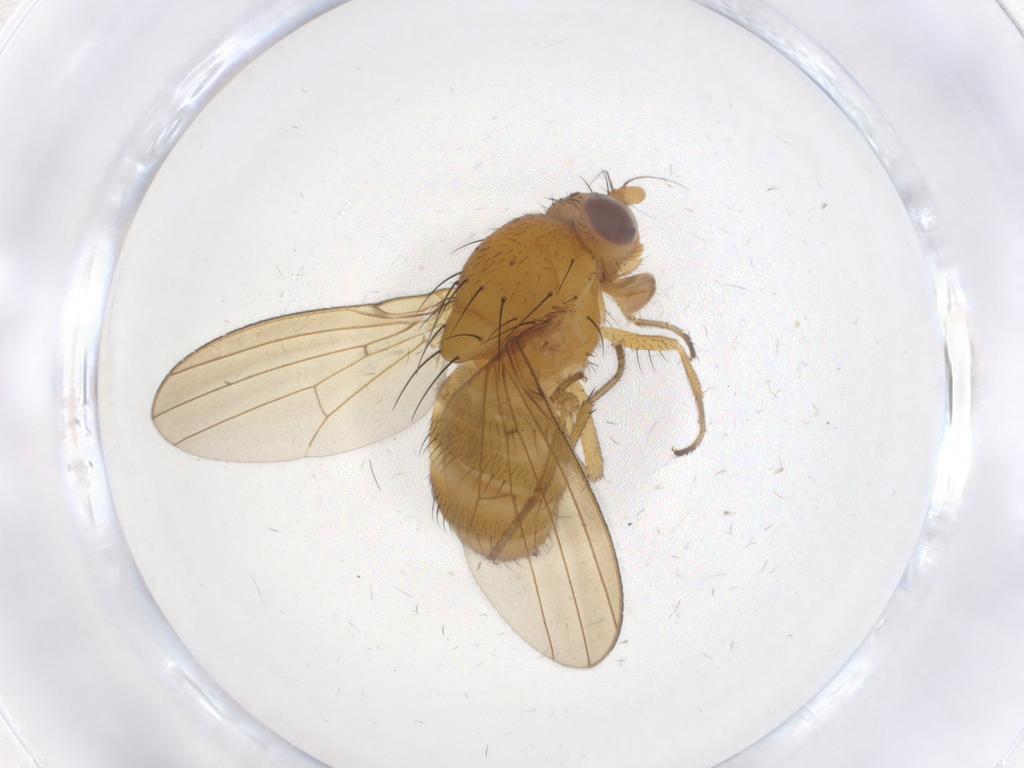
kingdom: Animalia
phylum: Arthropoda
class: Insecta
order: Diptera
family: Lauxaniidae
